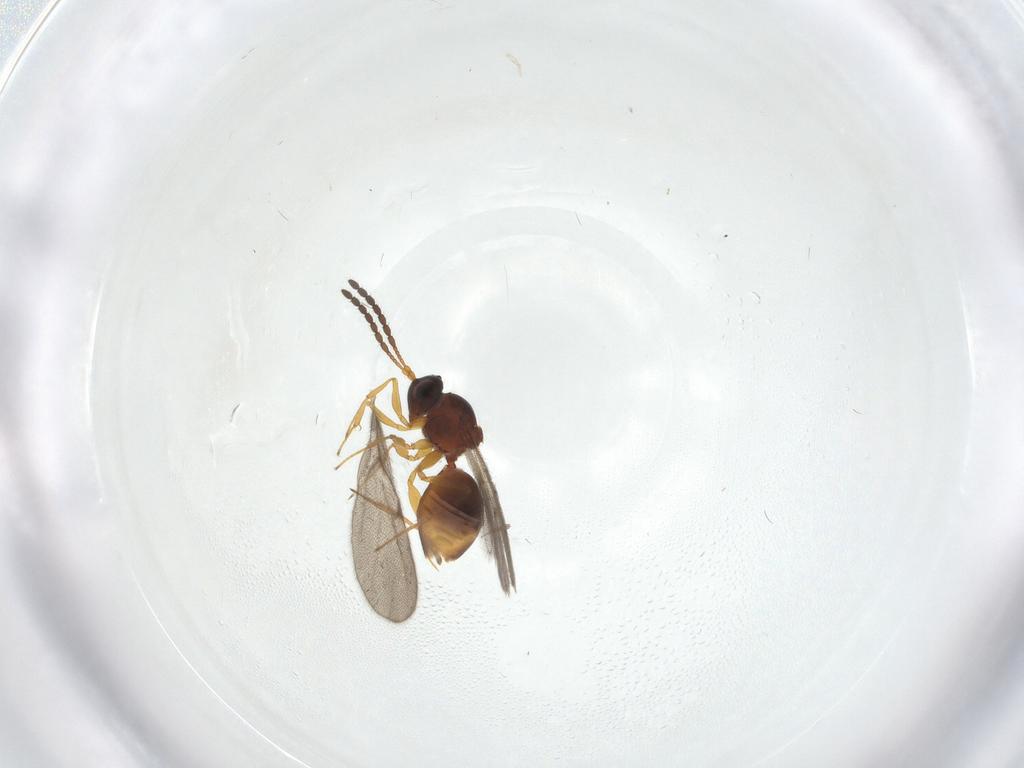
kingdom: Animalia
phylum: Arthropoda
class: Insecta
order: Hymenoptera
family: Figitidae
